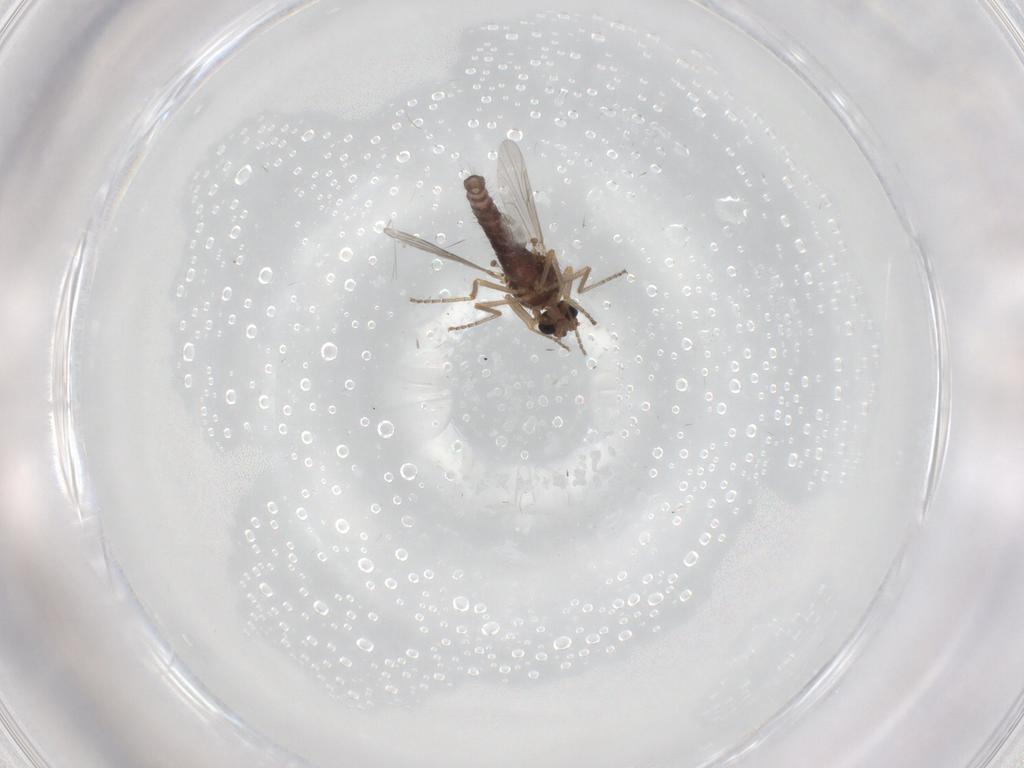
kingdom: Animalia
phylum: Arthropoda
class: Insecta
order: Diptera
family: Ceratopogonidae
